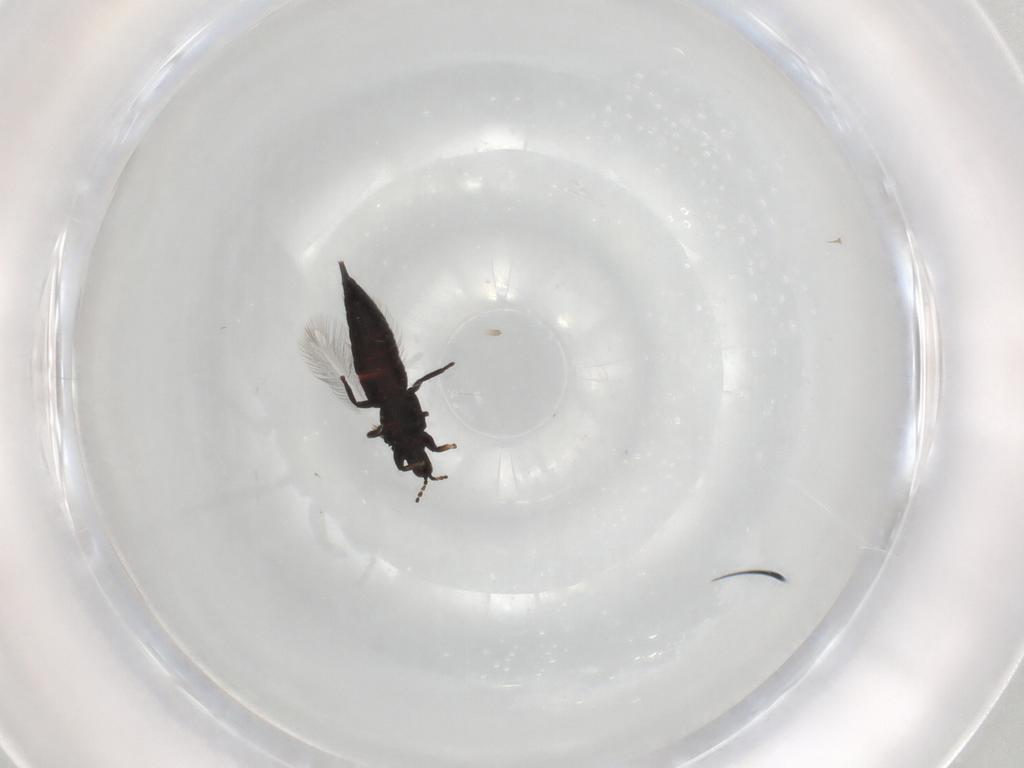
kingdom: Animalia
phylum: Arthropoda
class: Insecta
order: Thysanoptera
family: Phlaeothripidae
